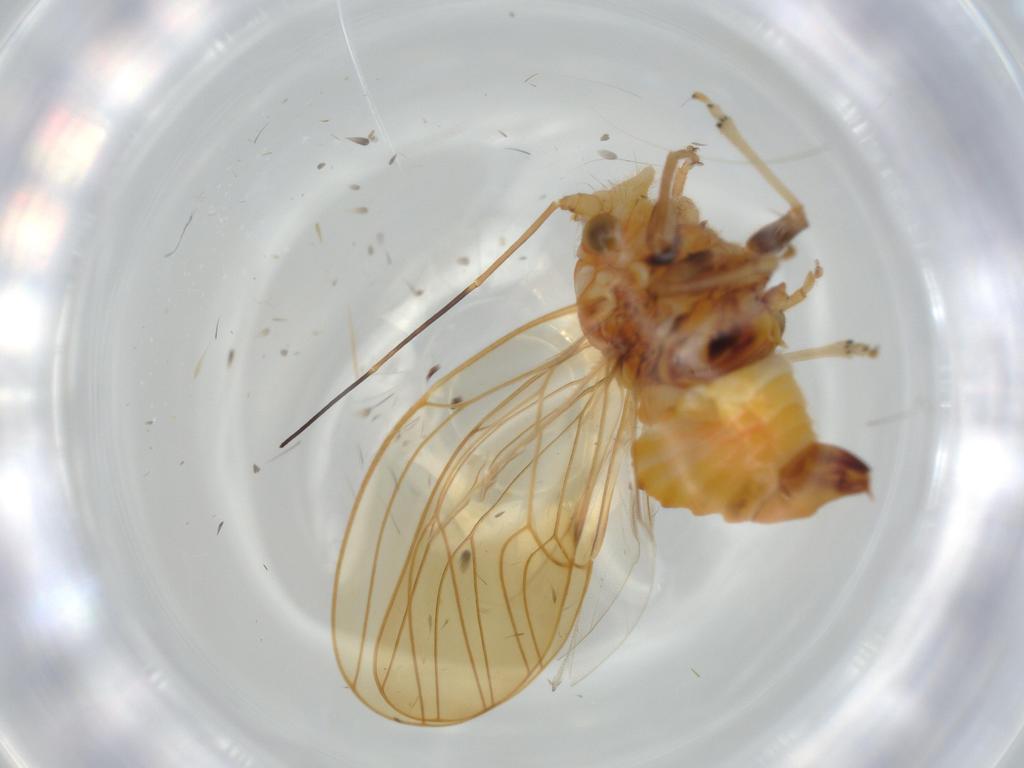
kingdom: Animalia
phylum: Arthropoda
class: Insecta
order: Hemiptera
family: Psyllidae
